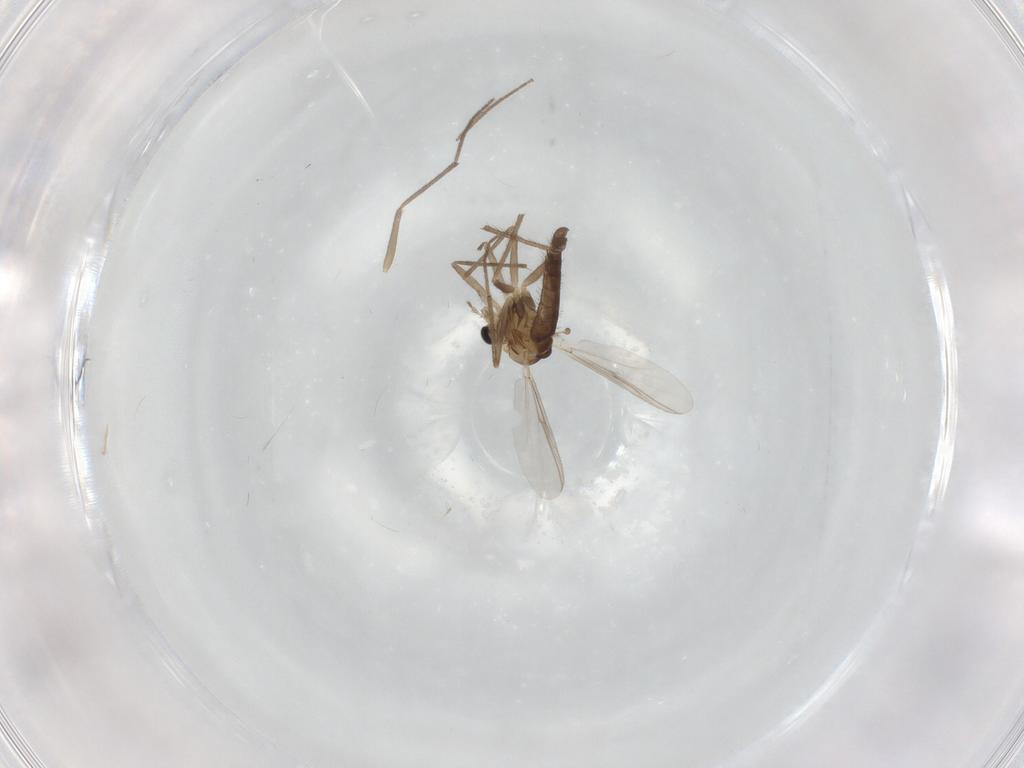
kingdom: Animalia
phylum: Arthropoda
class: Insecta
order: Diptera
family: Chironomidae
